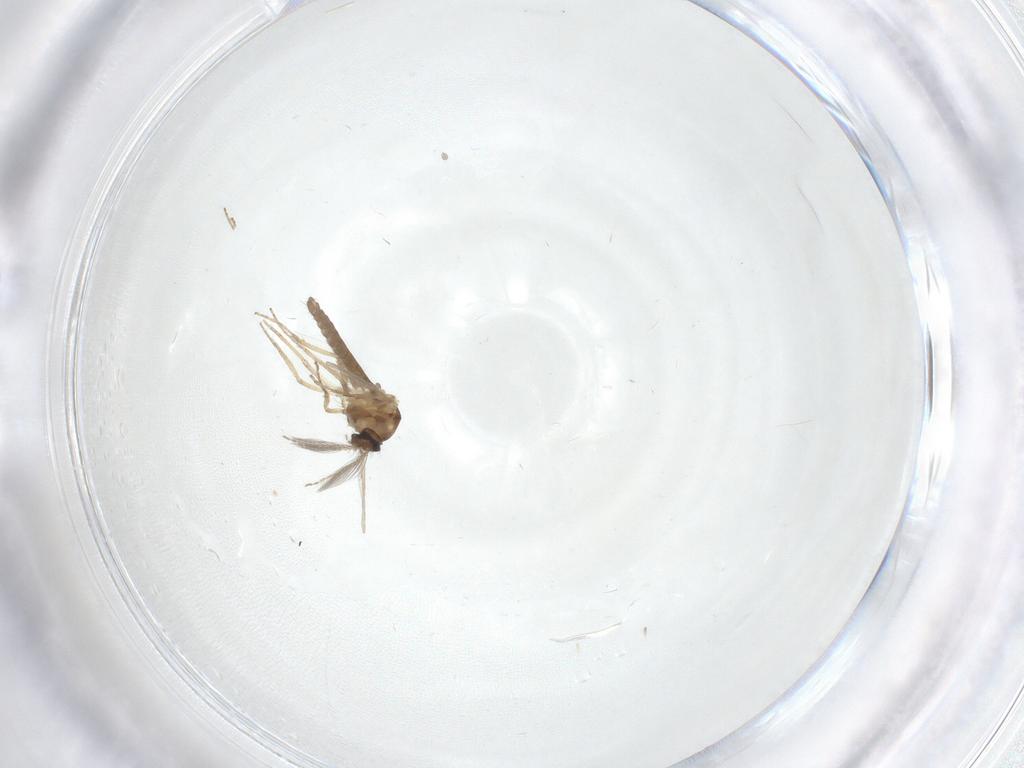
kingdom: Animalia
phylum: Arthropoda
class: Insecta
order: Diptera
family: Ceratopogonidae
